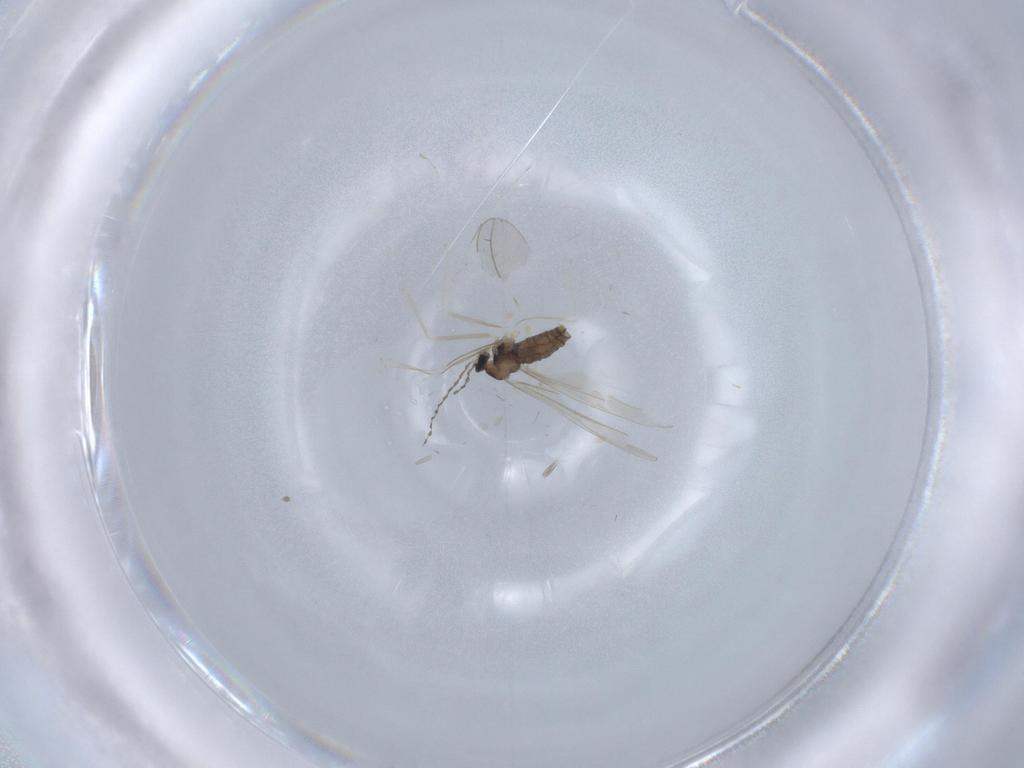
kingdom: Animalia
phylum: Arthropoda
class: Insecta
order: Diptera
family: Cecidomyiidae
